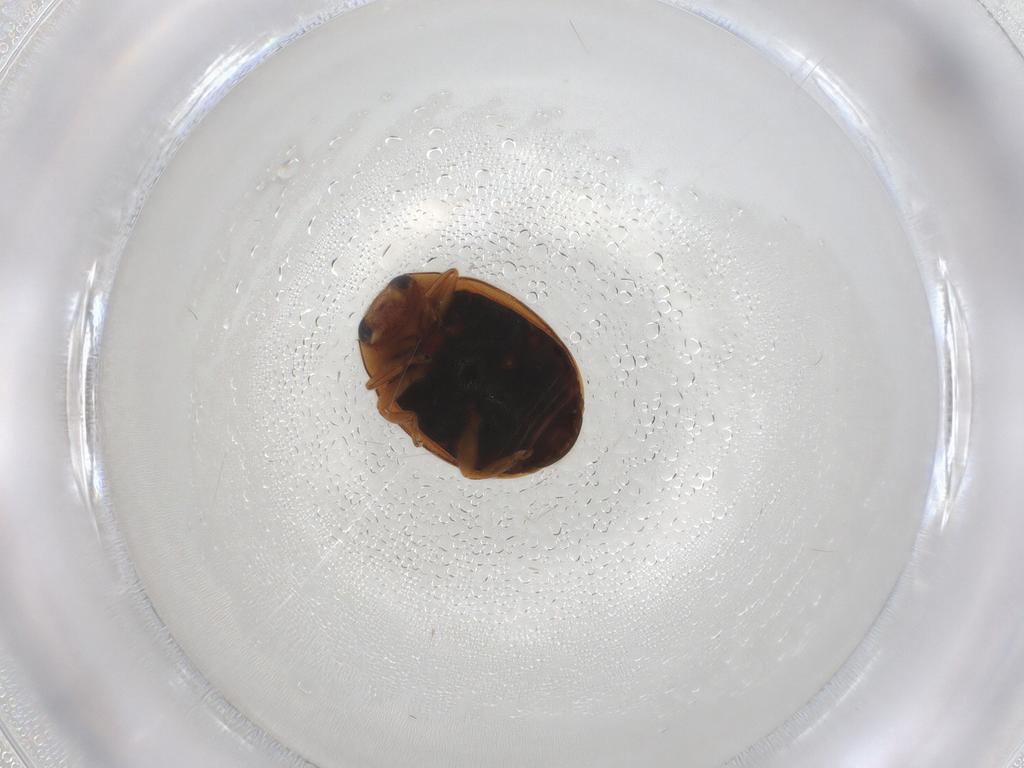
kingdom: Animalia
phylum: Arthropoda
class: Insecta
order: Coleoptera
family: Coccinellidae
